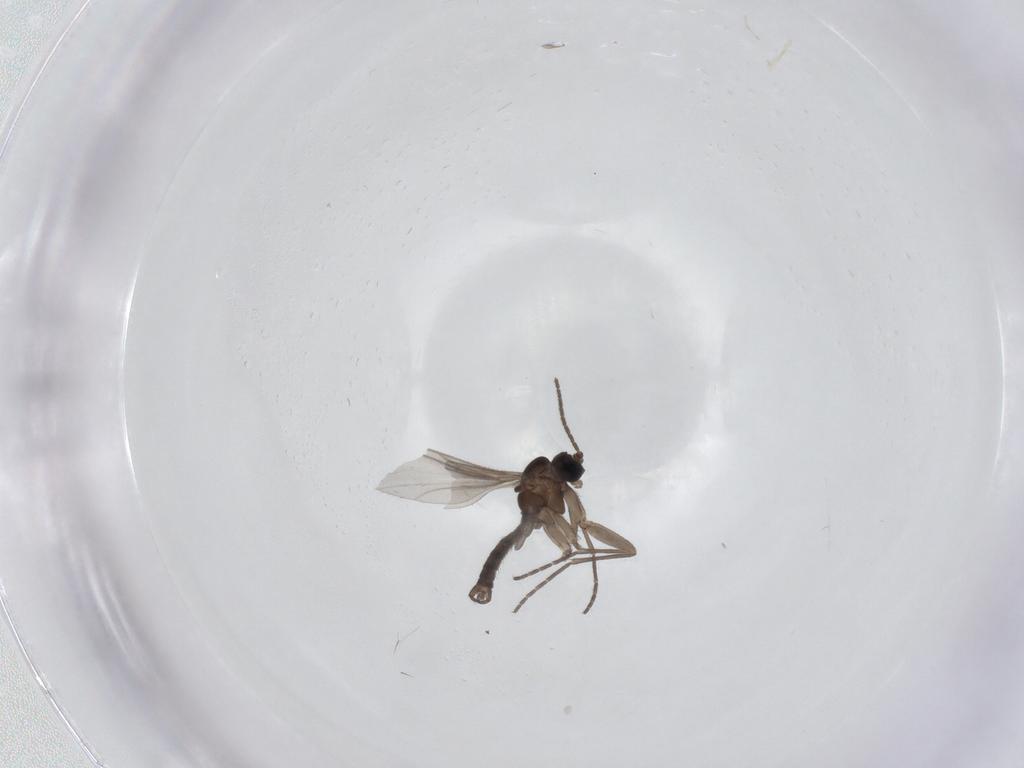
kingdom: Animalia
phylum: Arthropoda
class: Insecta
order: Diptera
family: Sciaridae
